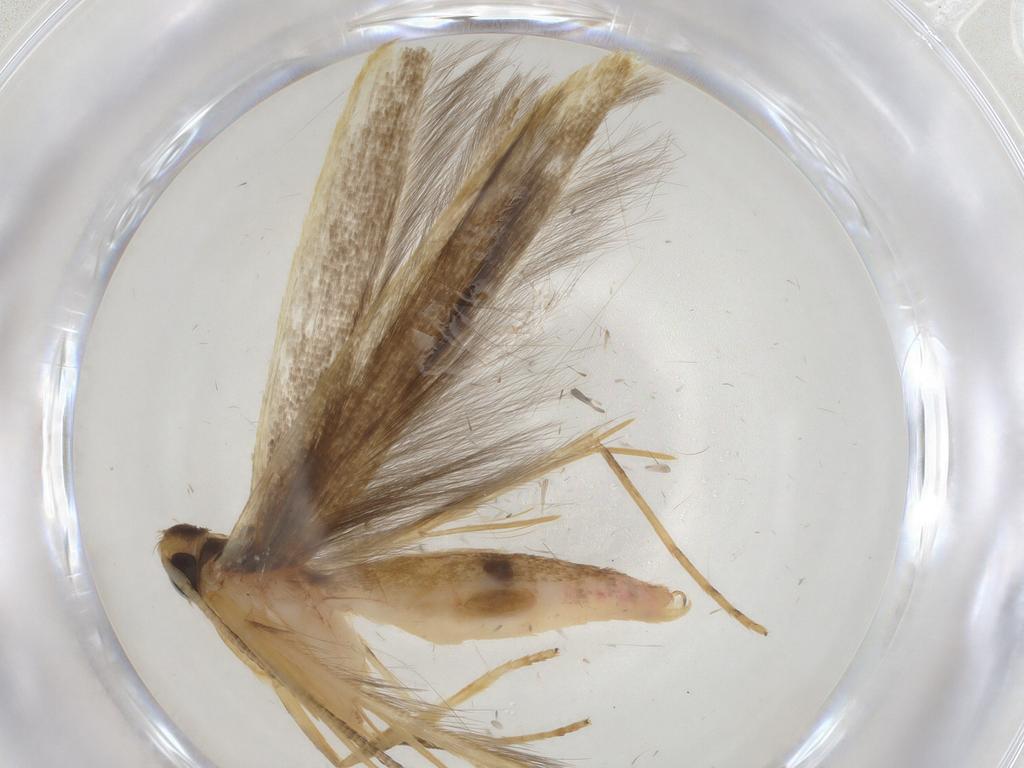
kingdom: Animalia
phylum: Arthropoda
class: Insecta
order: Lepidoptera
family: Pterolonchidae
